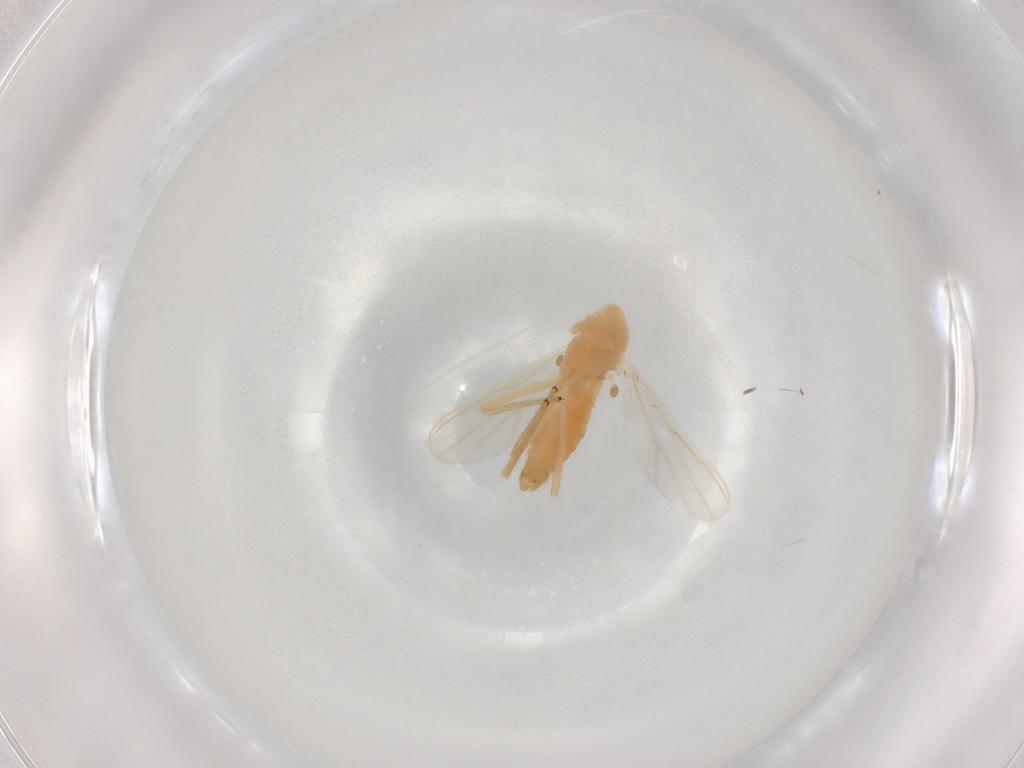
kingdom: Animalia
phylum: Arthropoda
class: Insecta
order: Diptera
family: Chironomidae
